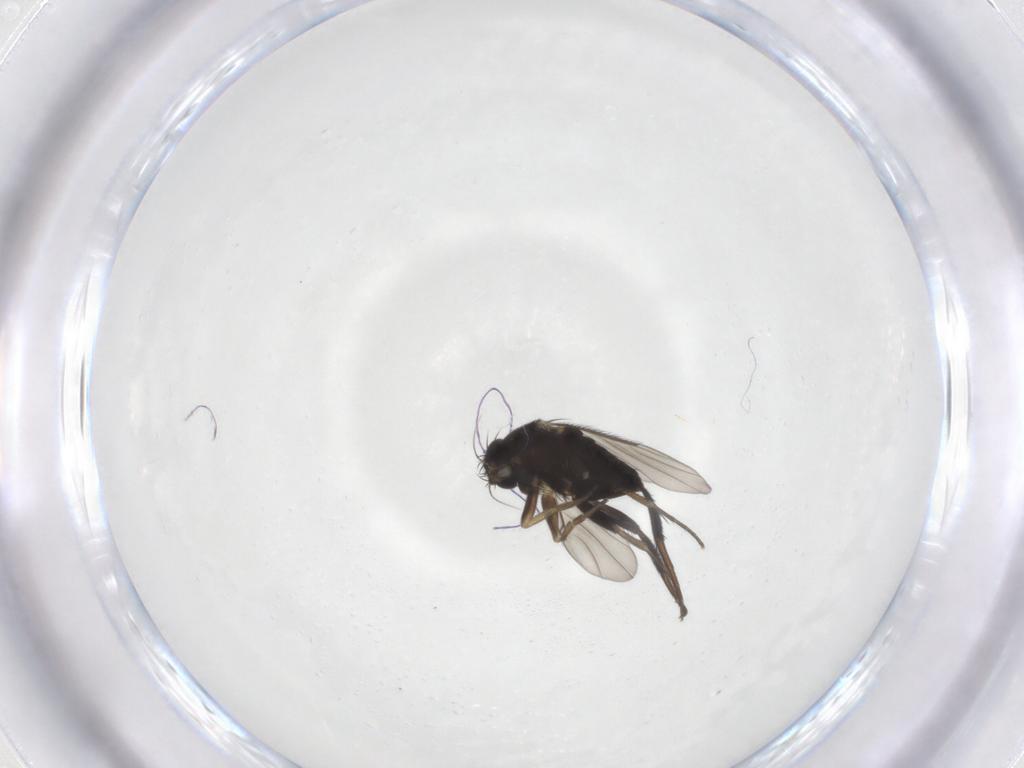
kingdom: Animalia
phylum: Arthropoda
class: Insecta
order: Diptera
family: Phoridae
